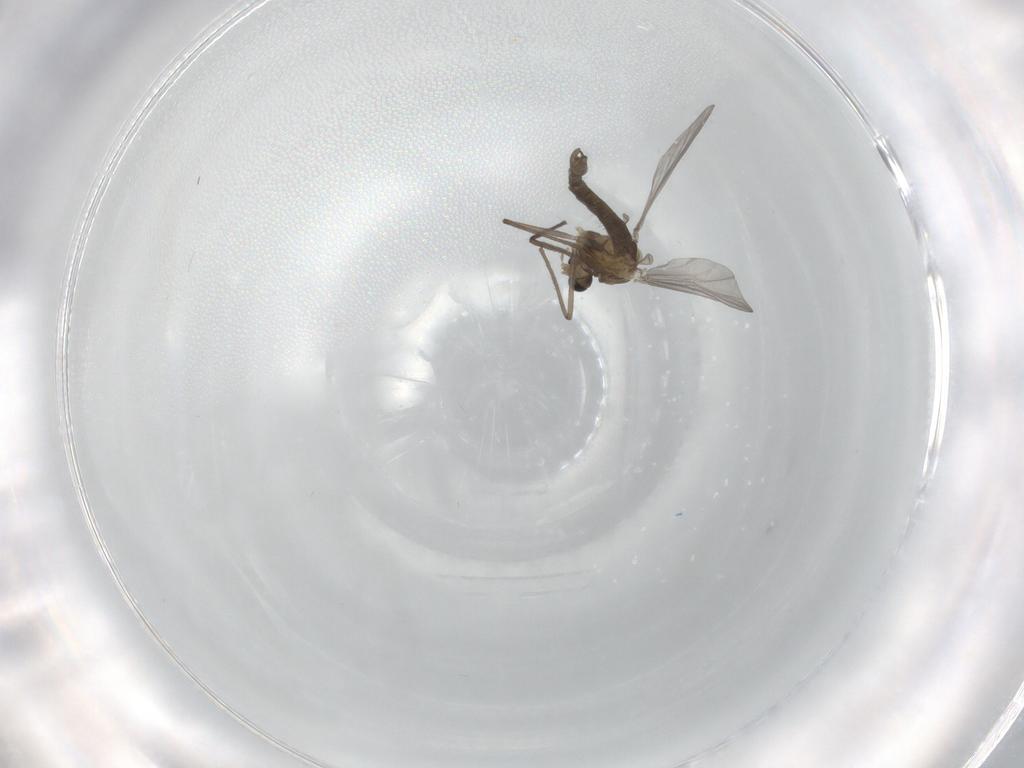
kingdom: Animalia
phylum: Arthropoda
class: Insecta
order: Diptera
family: Chironomidae
